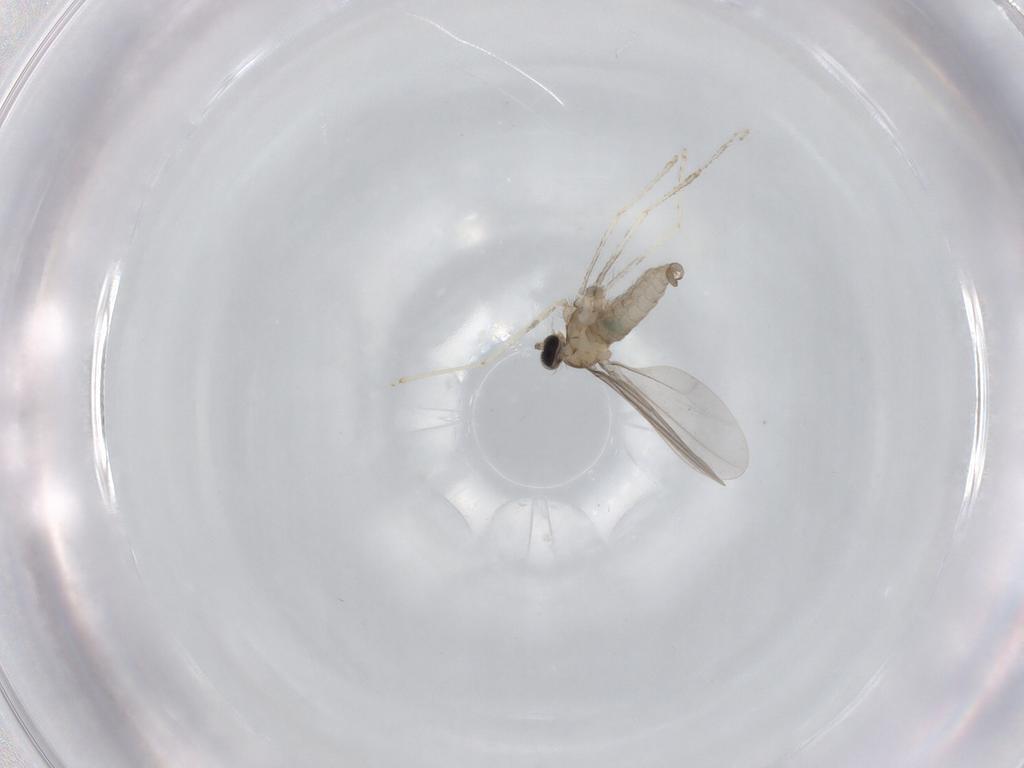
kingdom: Animalia
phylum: Arthropoda
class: Insecta
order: Diptera
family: Cecidomyiidae
